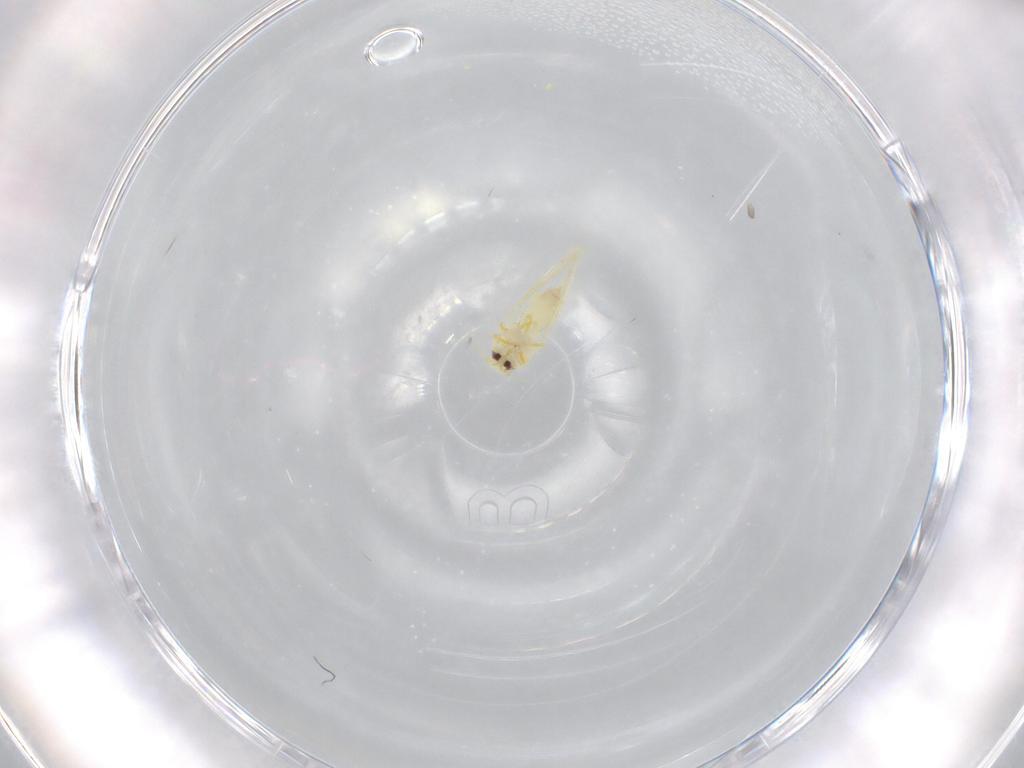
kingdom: Animalia
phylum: Arthropoda
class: Insecta
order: Hemiptera
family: Aleyrodidae
